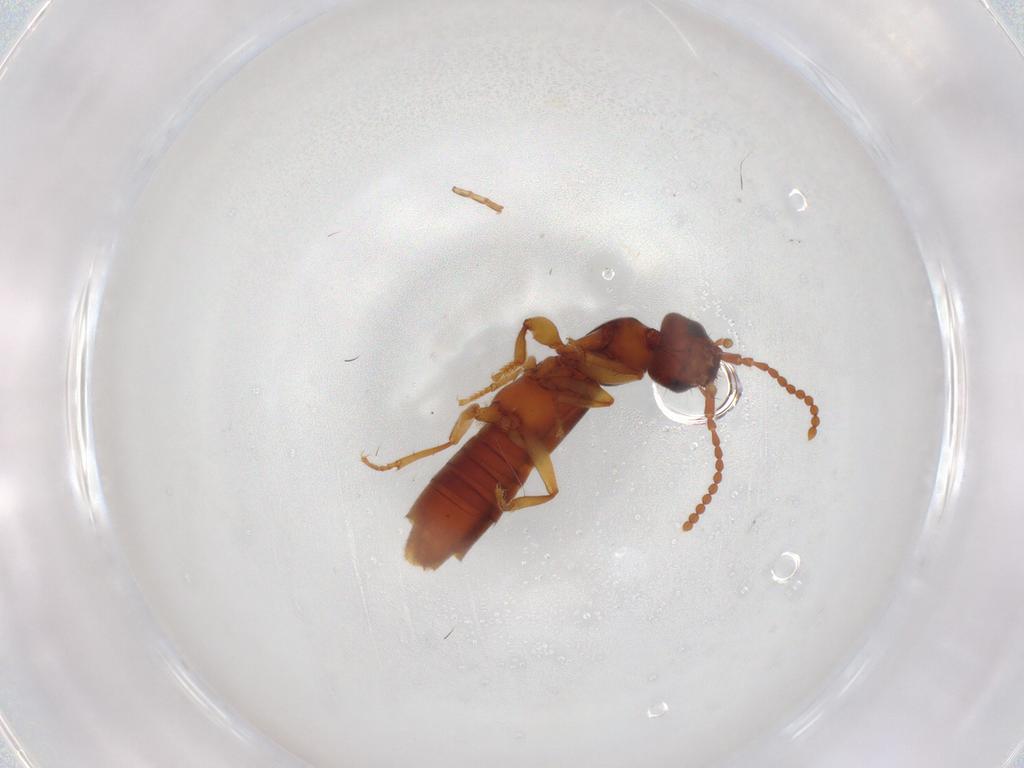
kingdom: Animalia
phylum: Arthropoda
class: Insecta
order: Coleoptera
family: Staphylinidae
